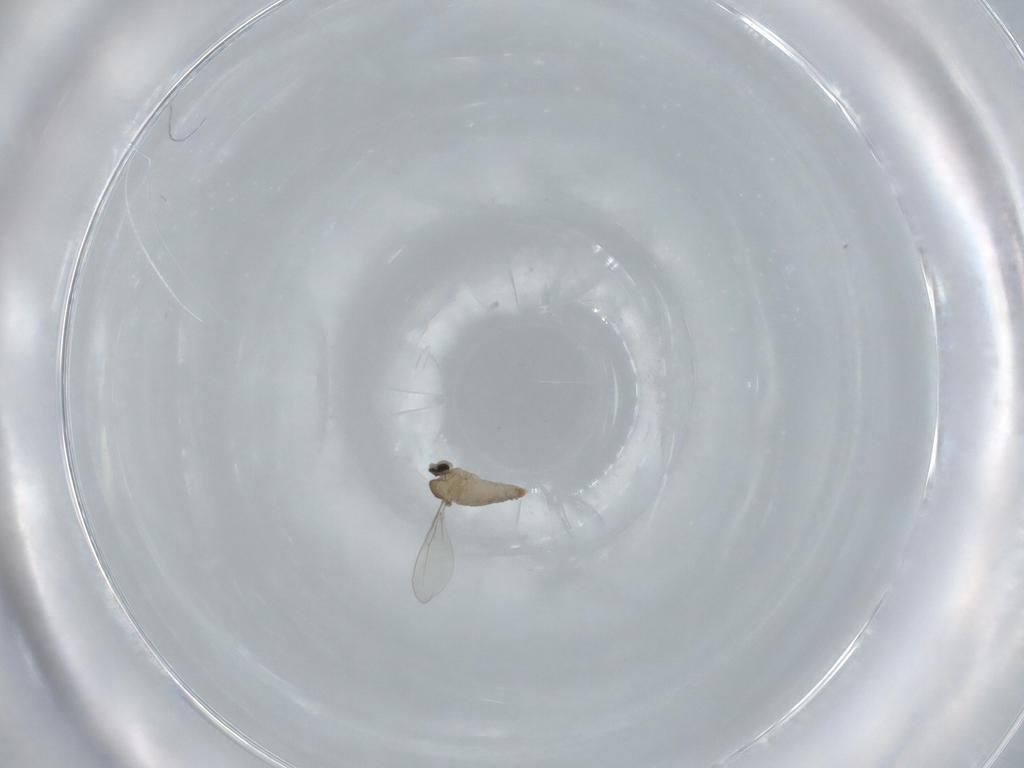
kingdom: Animalia
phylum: Arthropoda
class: Insecta
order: Diptera
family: Cecidomyiidae
